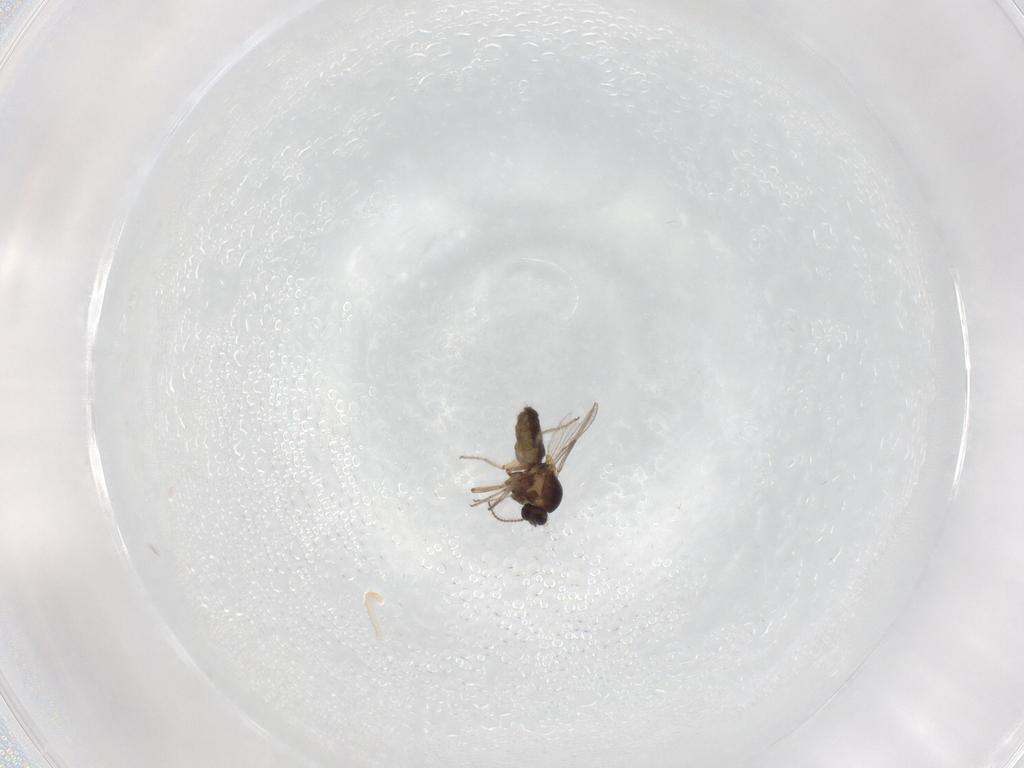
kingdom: Animalia
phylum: Arthropoda
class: Insecta
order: Diptera
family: Ceratopogonidae
